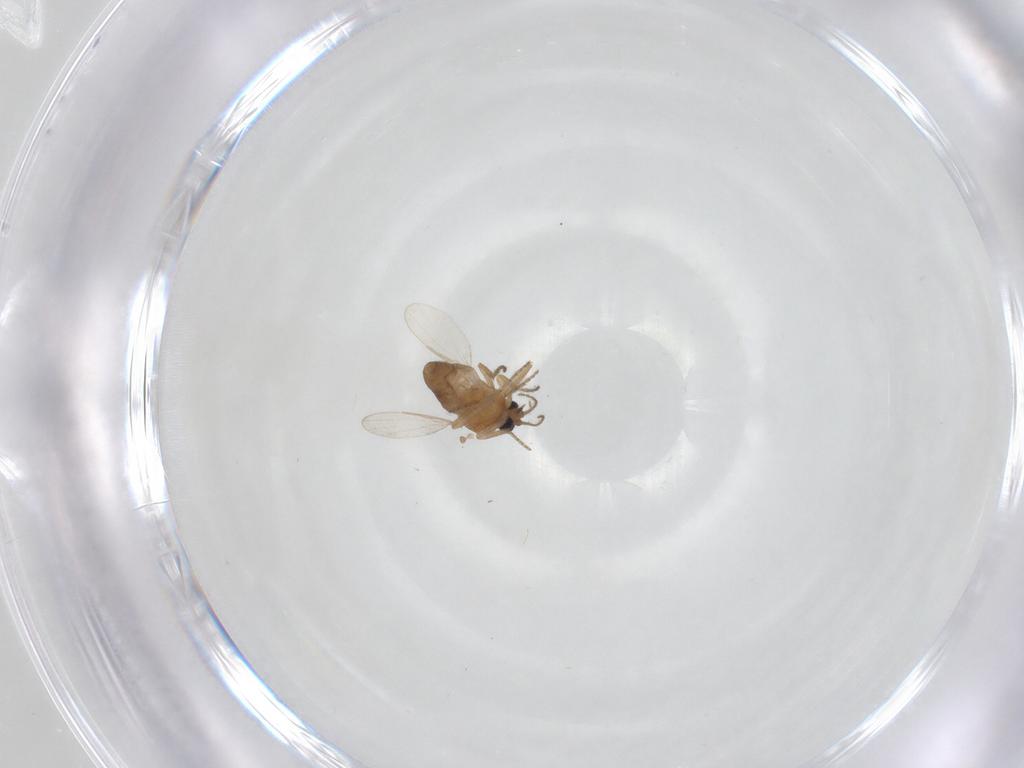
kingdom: Animalia
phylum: Arthropoda
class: Insecta
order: Diptera
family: Ceratopogonidae
